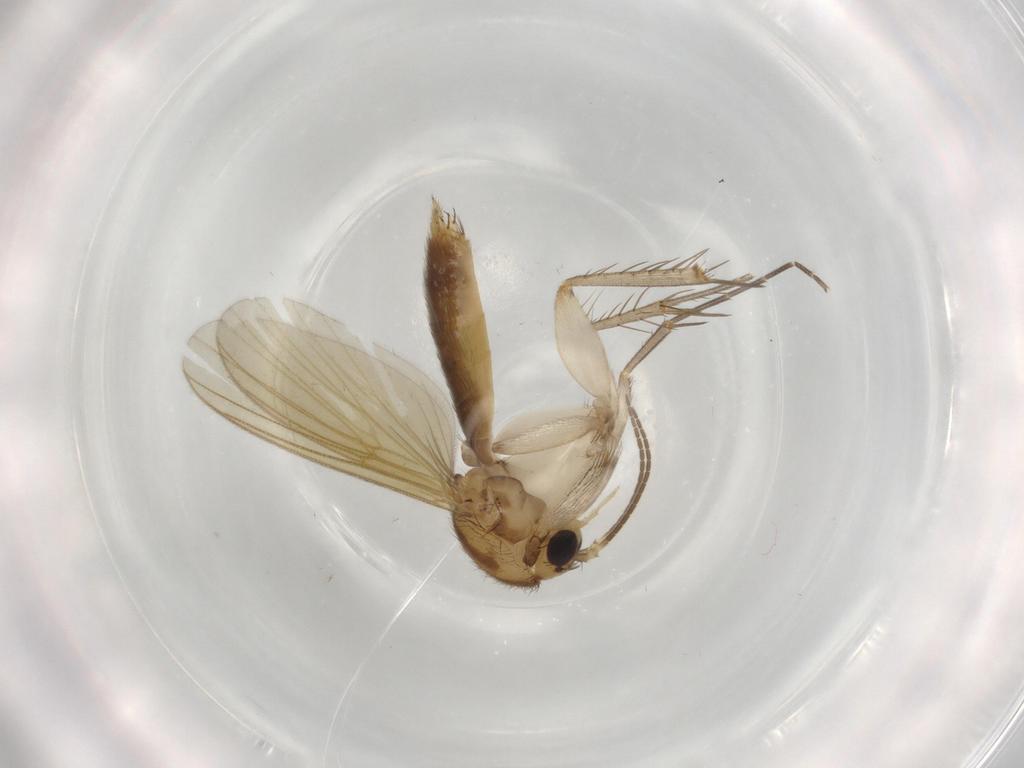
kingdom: Animalia
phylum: Arthropoda
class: Insecta
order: Diptera
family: Mycetophilidae
